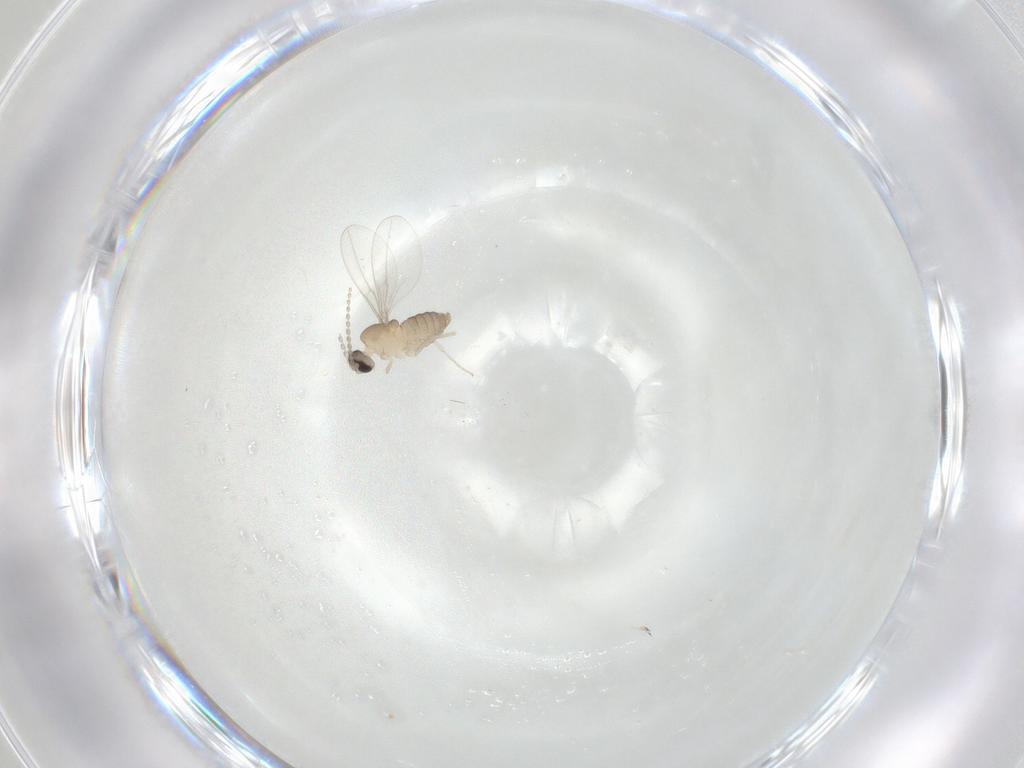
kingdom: Animalia
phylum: Arthropoda
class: Insecta
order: Diptera
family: Cecidomyiidae
